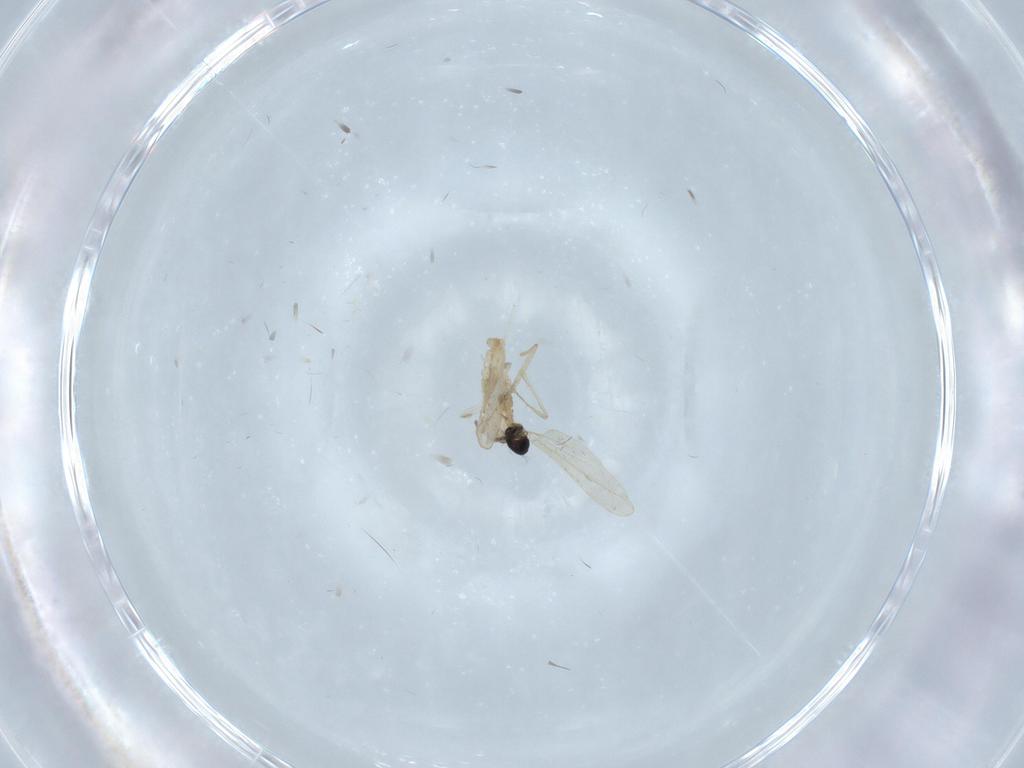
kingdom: Animalia
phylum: Arthropoda
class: Insecta
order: Diptera
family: Cecidomyiidae
